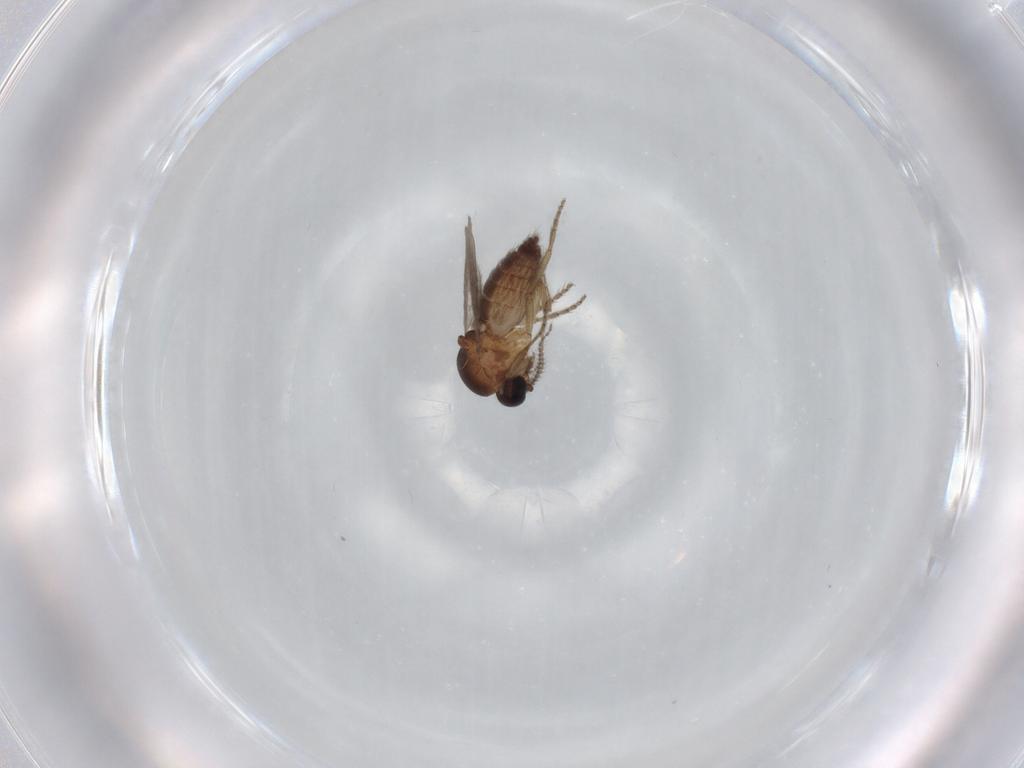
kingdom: Animalia
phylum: Arthropoda
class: Insecta
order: Diptera
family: Ceratopogonidae
